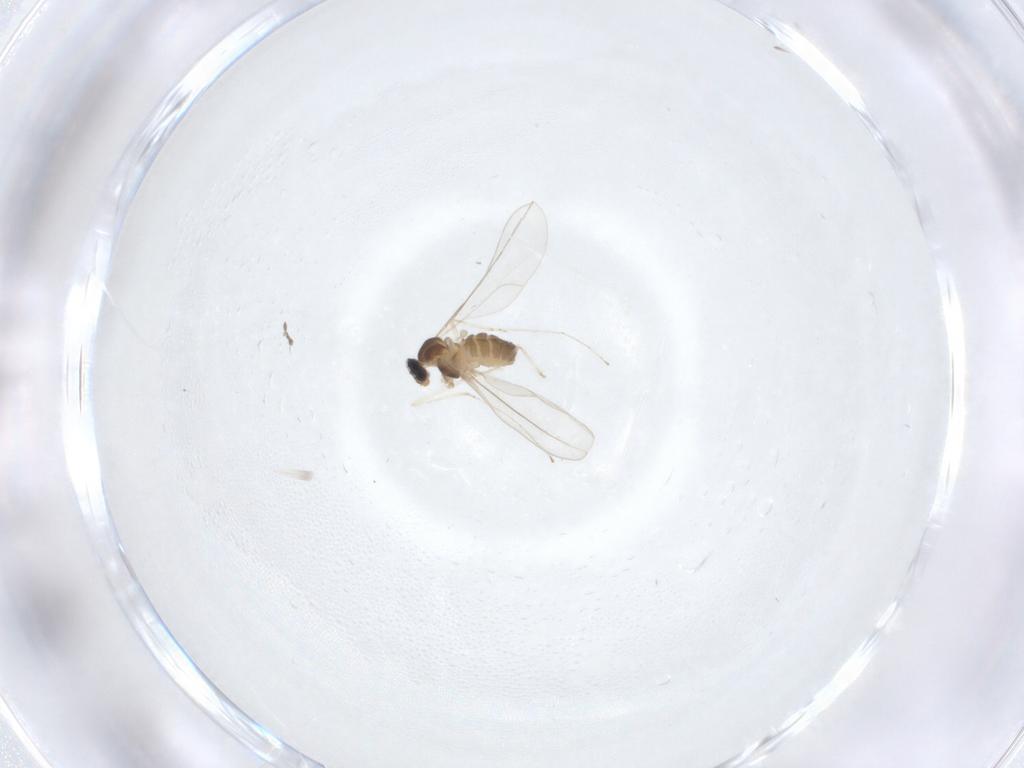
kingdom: Animalia
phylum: Arthropoda
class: Insecta
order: Diptera
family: Cecidomyiidae
